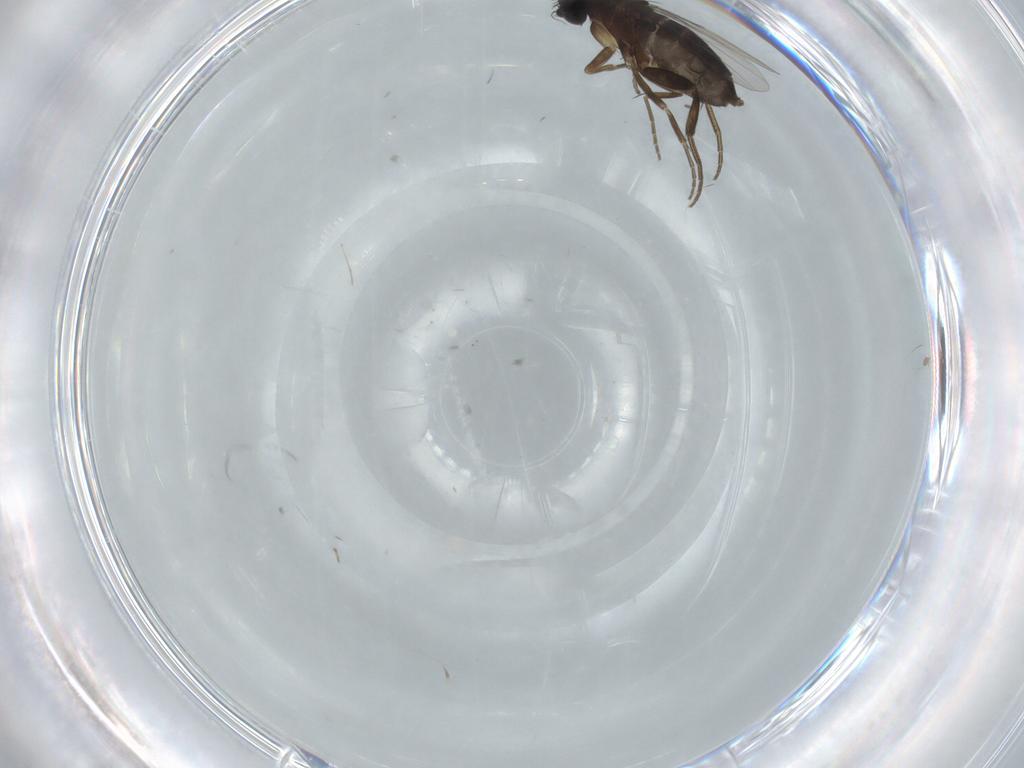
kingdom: Animalia
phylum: Arthropoda
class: Insecta
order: Diptera
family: Phoridae
